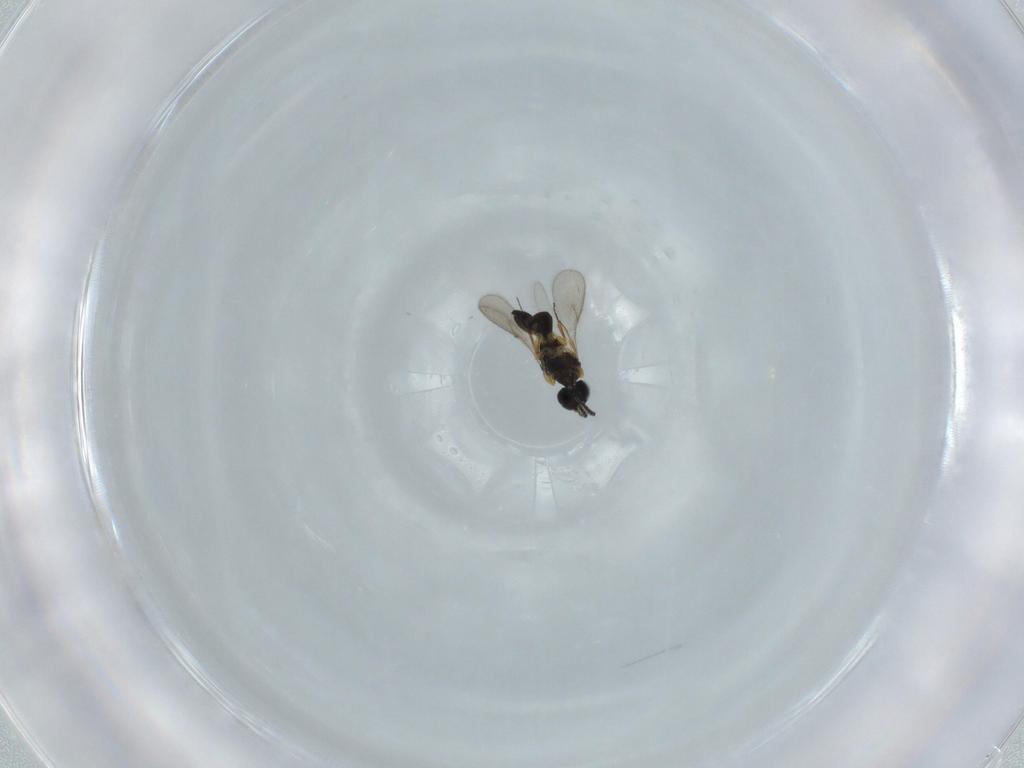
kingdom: Animalia
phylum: Arthropoda
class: Insecta
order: Hymenoptera
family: Scelionidae
